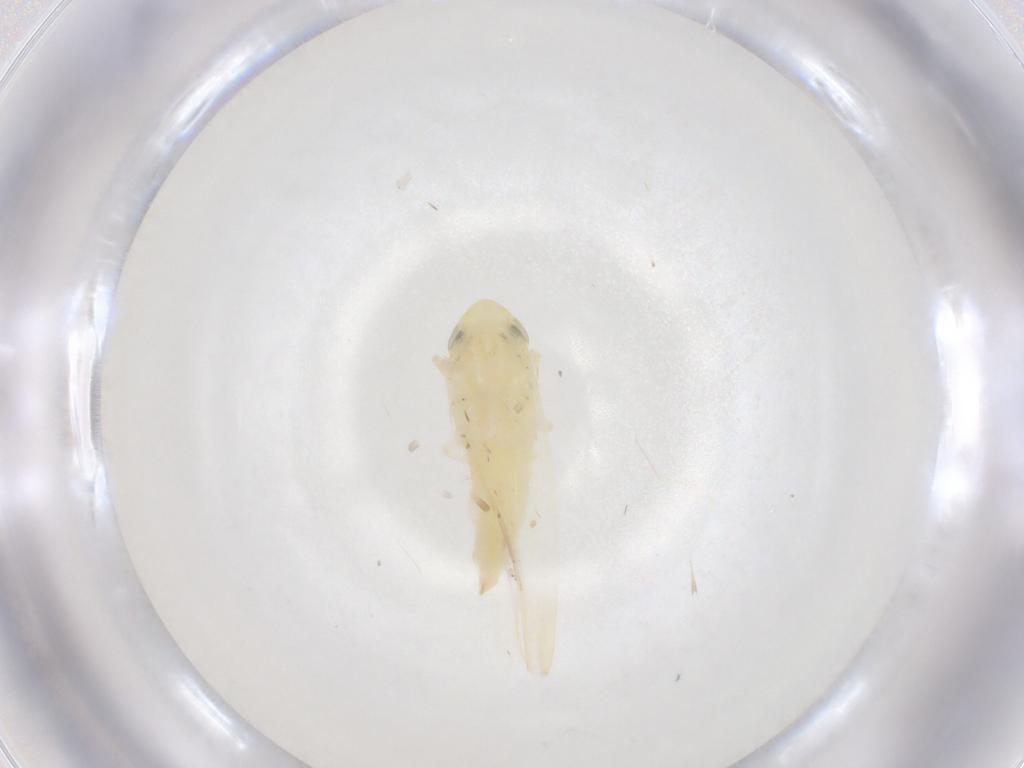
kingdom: Animalia
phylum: Arthropoda
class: Insecta
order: Hemiptera
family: Cicadellidae
